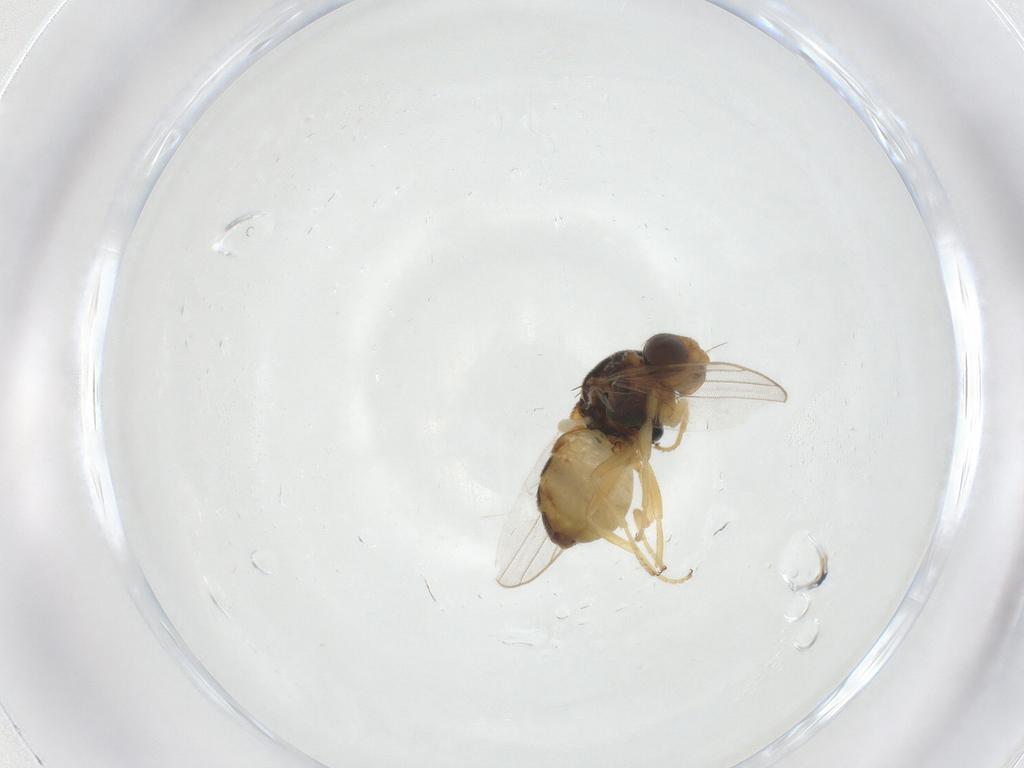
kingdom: Animalia
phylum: Arthropoda
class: Insecta
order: Diptera
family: Chloropidae
